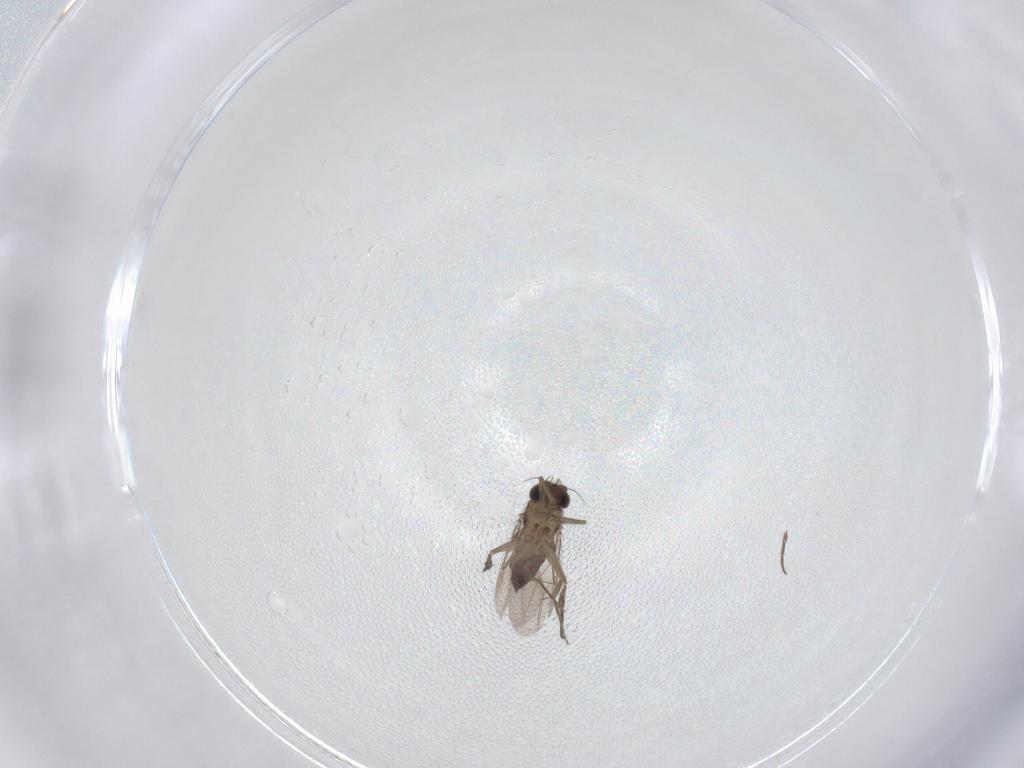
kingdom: Animalia
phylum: Arthropoda
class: Insecta
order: Diptera
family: Phoridae
